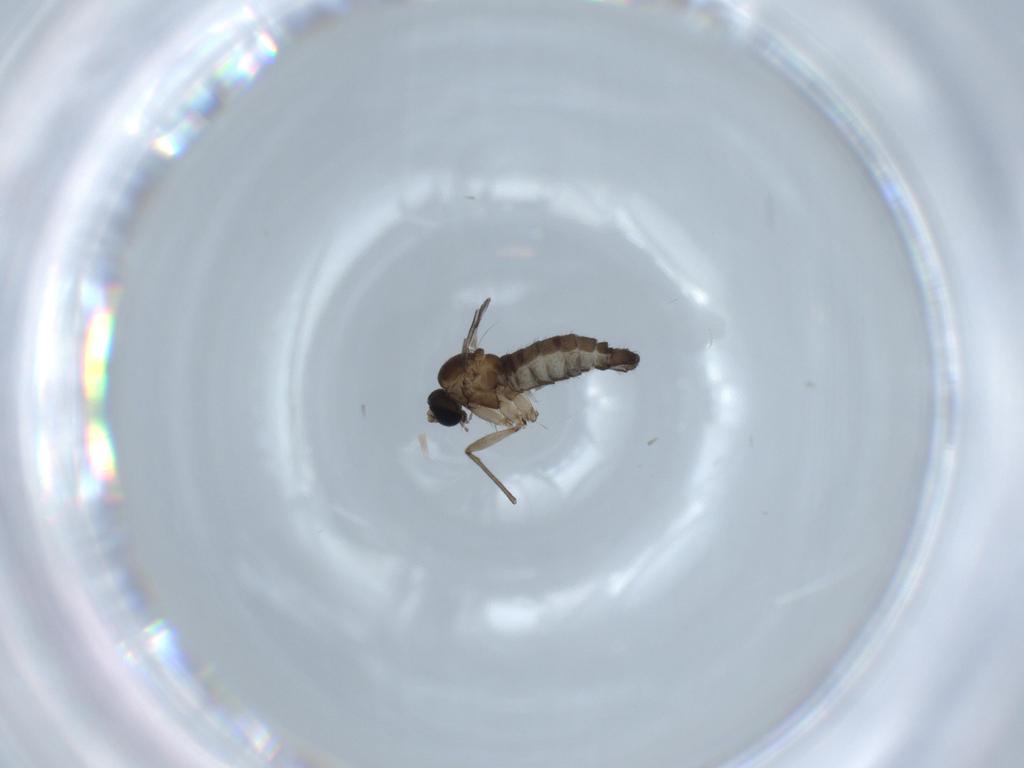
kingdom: Animalia
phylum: Arthropoda
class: Insecta
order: Diptera
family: Sciaridae
